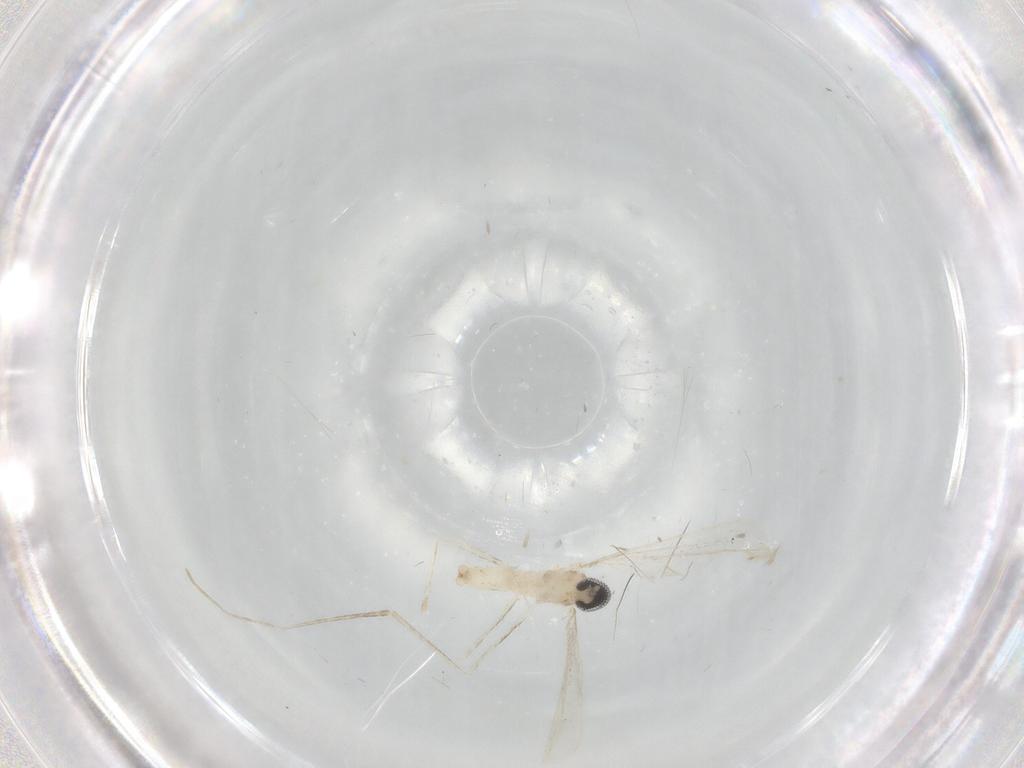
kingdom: Animalia
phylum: Arthropoda
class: Insecta
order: Diptera
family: Cecidomyiidae
